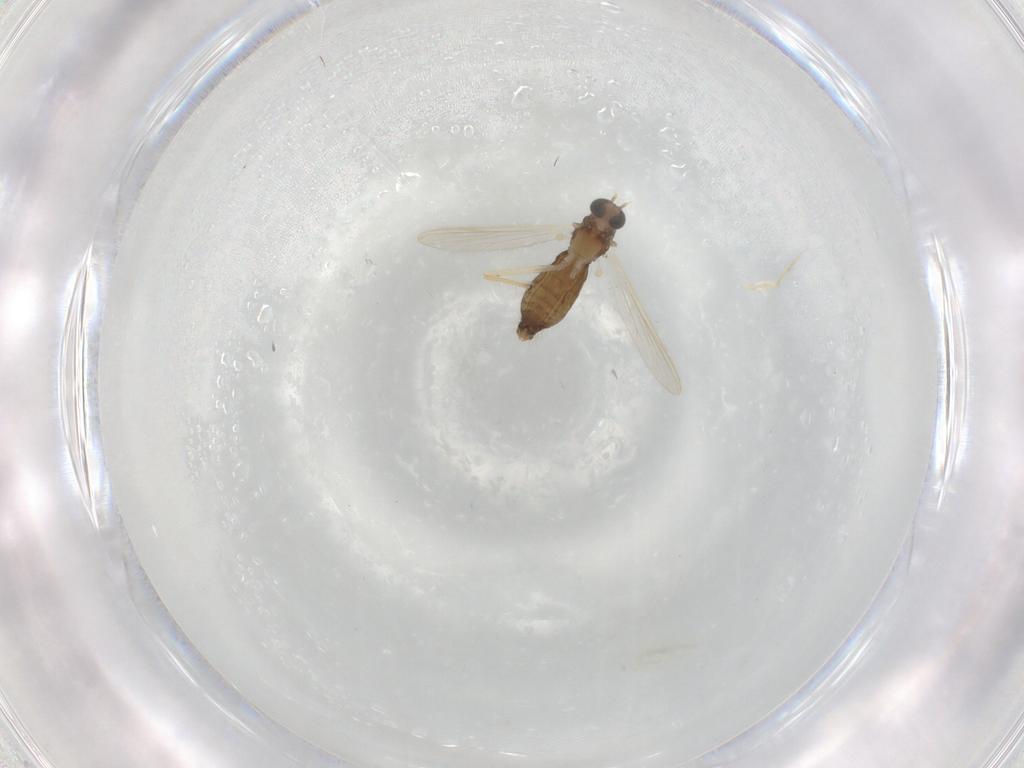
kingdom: Animalia
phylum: Arthropoda
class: Insecta
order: Diptera
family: Chironomidae
